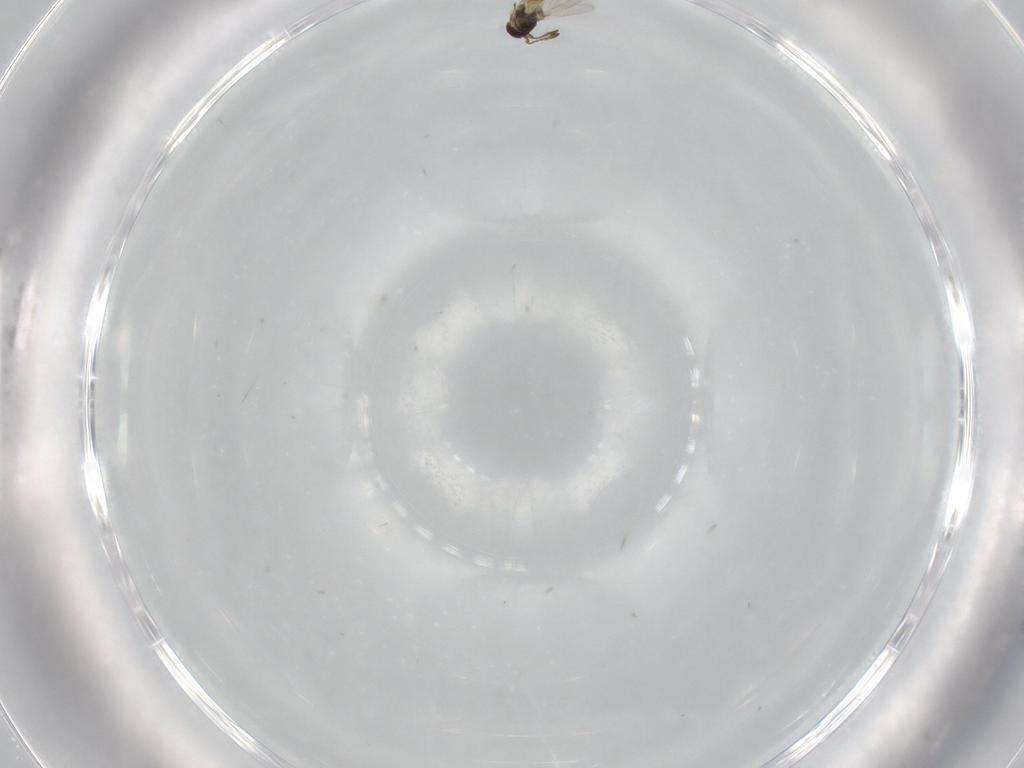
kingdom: Animalia
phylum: Arthropoda
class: Insecta
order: Hymenoptera
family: Mymaridae
